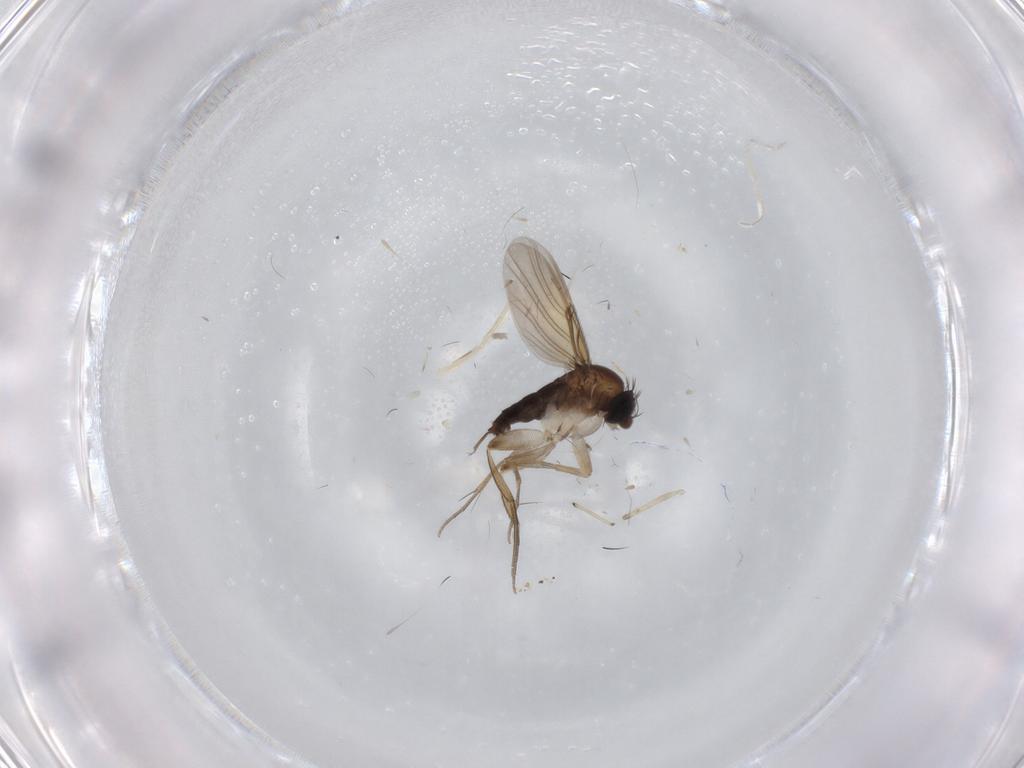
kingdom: Animalia
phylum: Arthropoda
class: Insecta
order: Diptera
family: Phoridae
